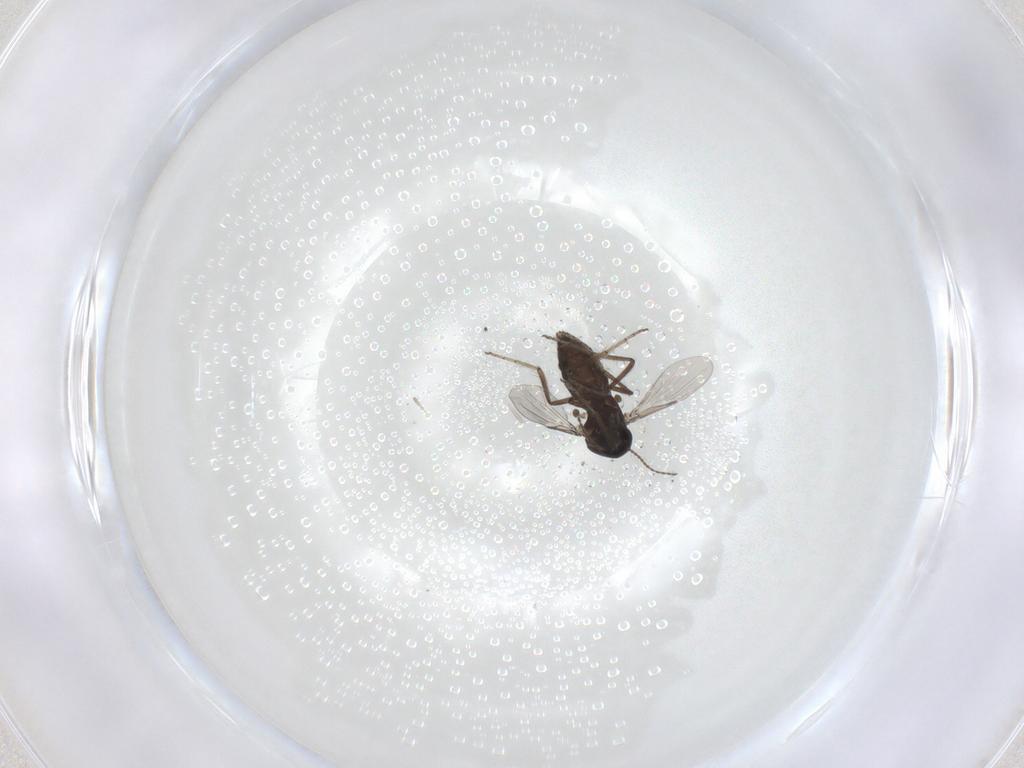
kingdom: Animalia
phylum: Arthropoda
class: Insecta
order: Diptera
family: Ceratopogonidae
